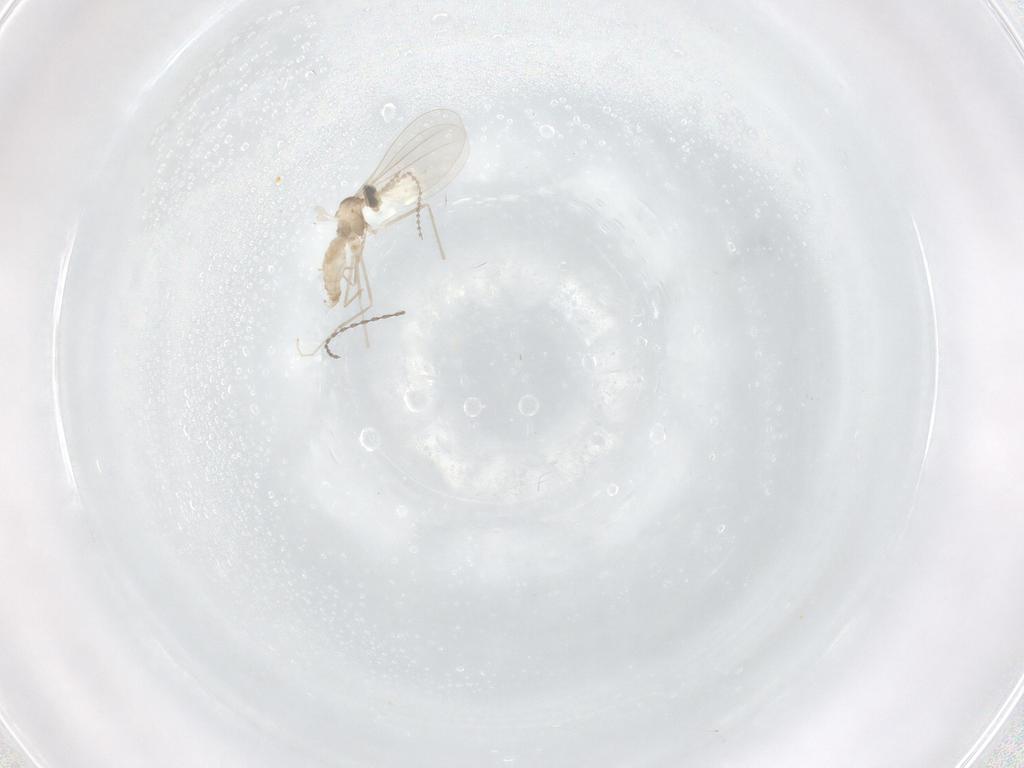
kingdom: Animalia
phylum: Arthropoda
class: Insecta
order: Diptera
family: Cecidomyiidae
